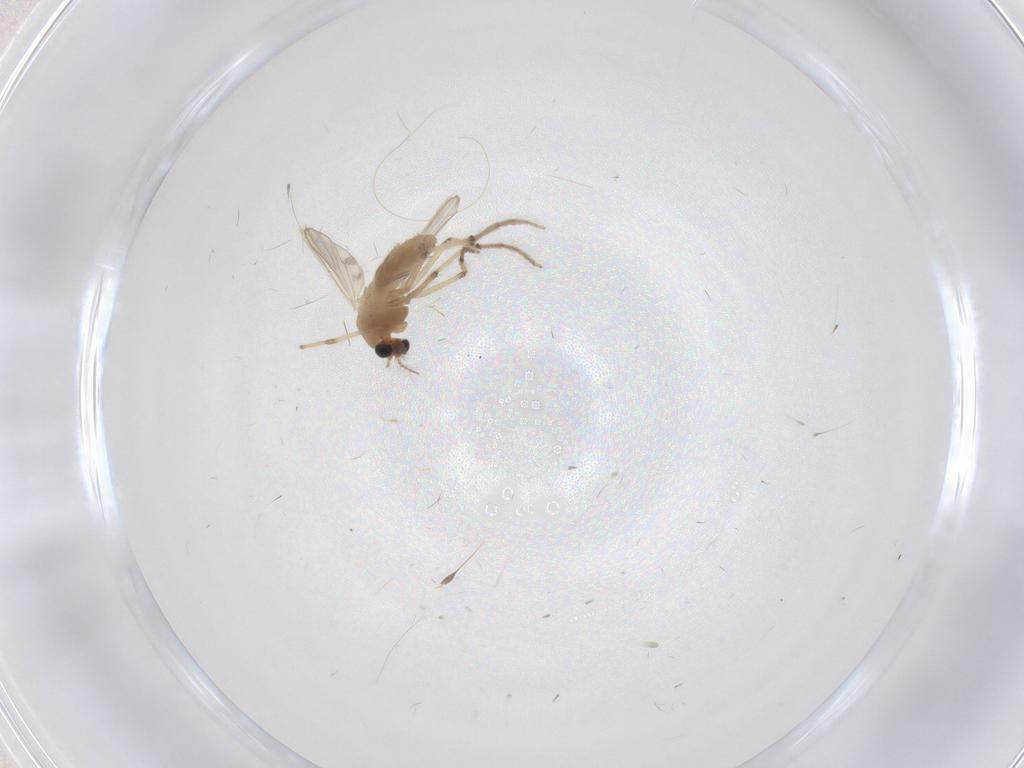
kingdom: Animalia
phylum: Arthropoda
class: Insecta
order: Diptera
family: Chironomidae
